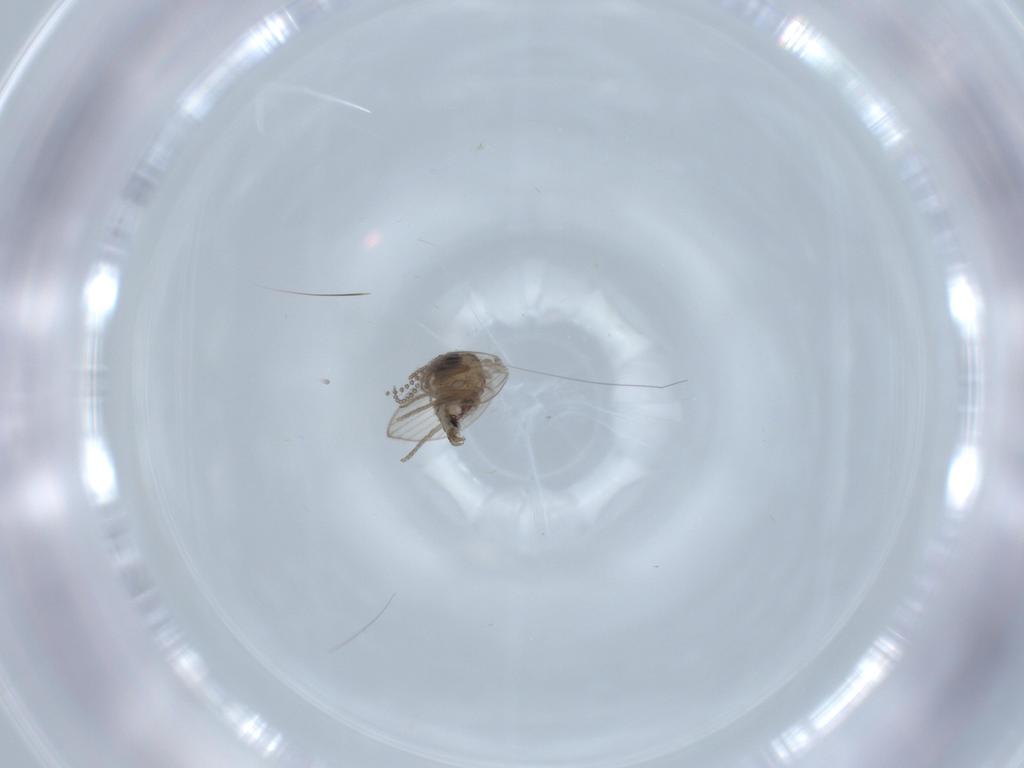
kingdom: Animalia
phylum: Arthropoda
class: Insecta
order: Diptera
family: Psychodidae
